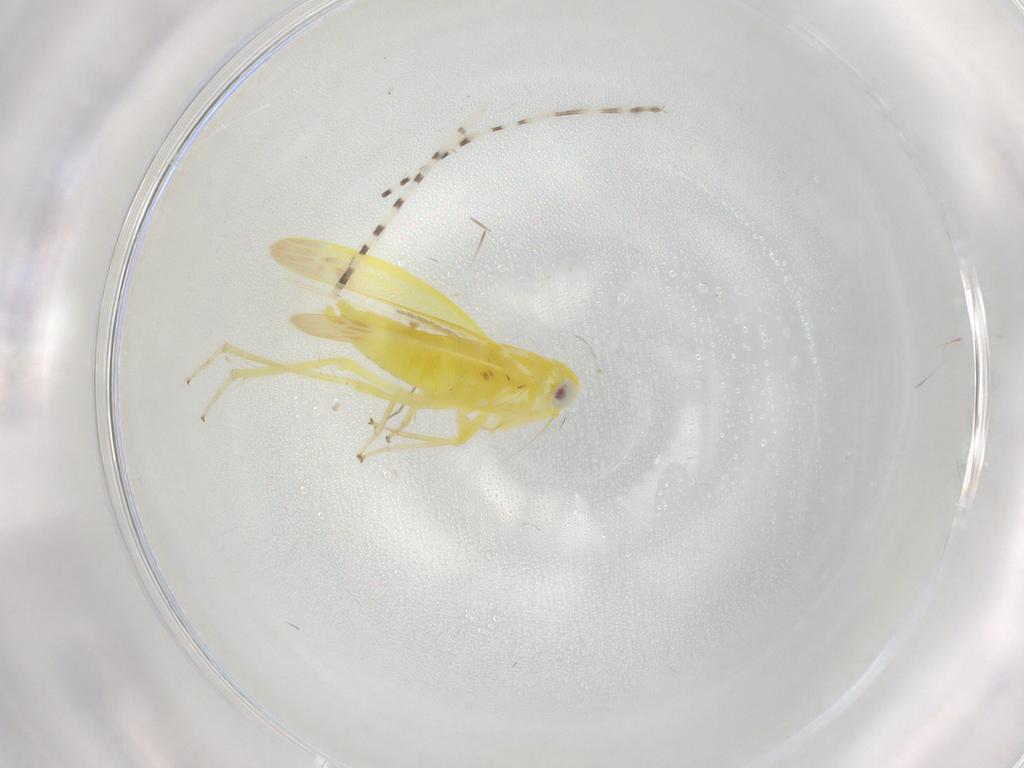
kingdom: Animalia
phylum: Arthropoda
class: Insecta
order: Hemiptera
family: Cicadellidae
